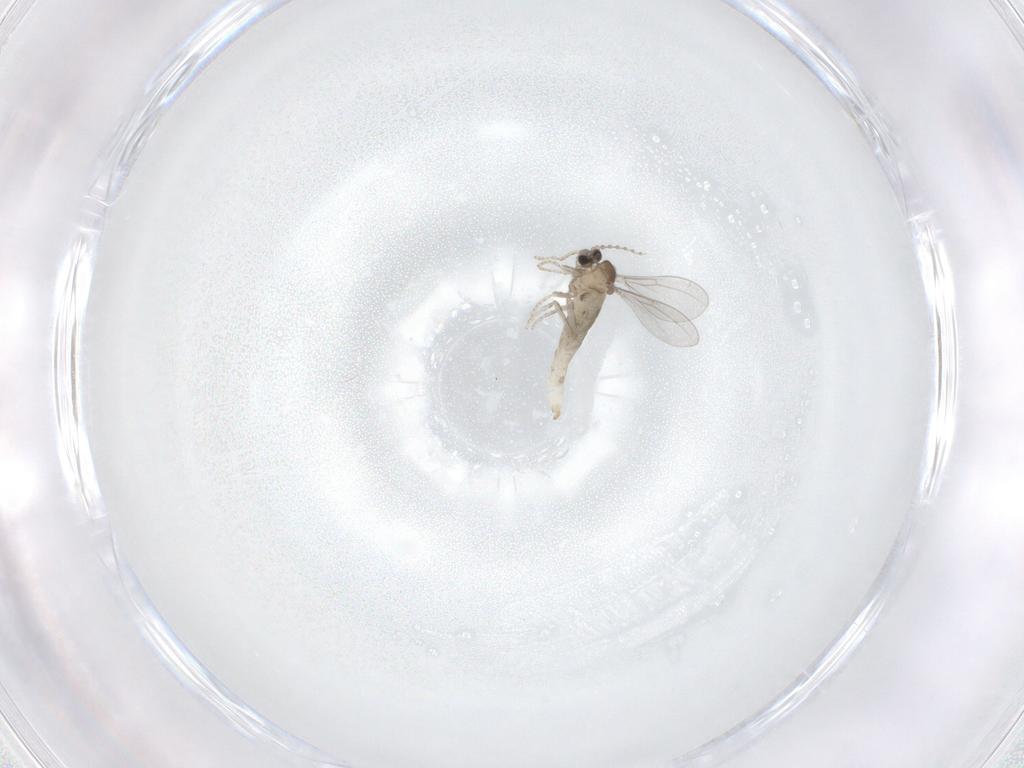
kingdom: Animalia
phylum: Arthropoda
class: Insecta
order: Diptera
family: Cecidomyiidae
